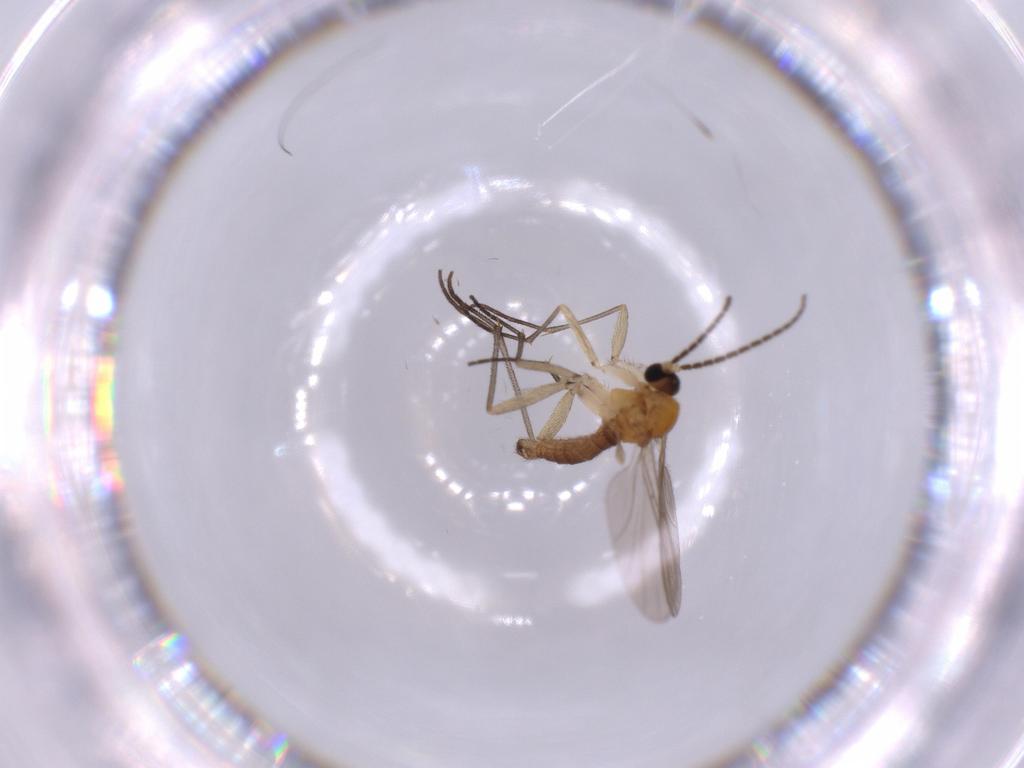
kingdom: Animalia
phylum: Arthropoda
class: Insecta
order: Diptera
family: Sciaridae
